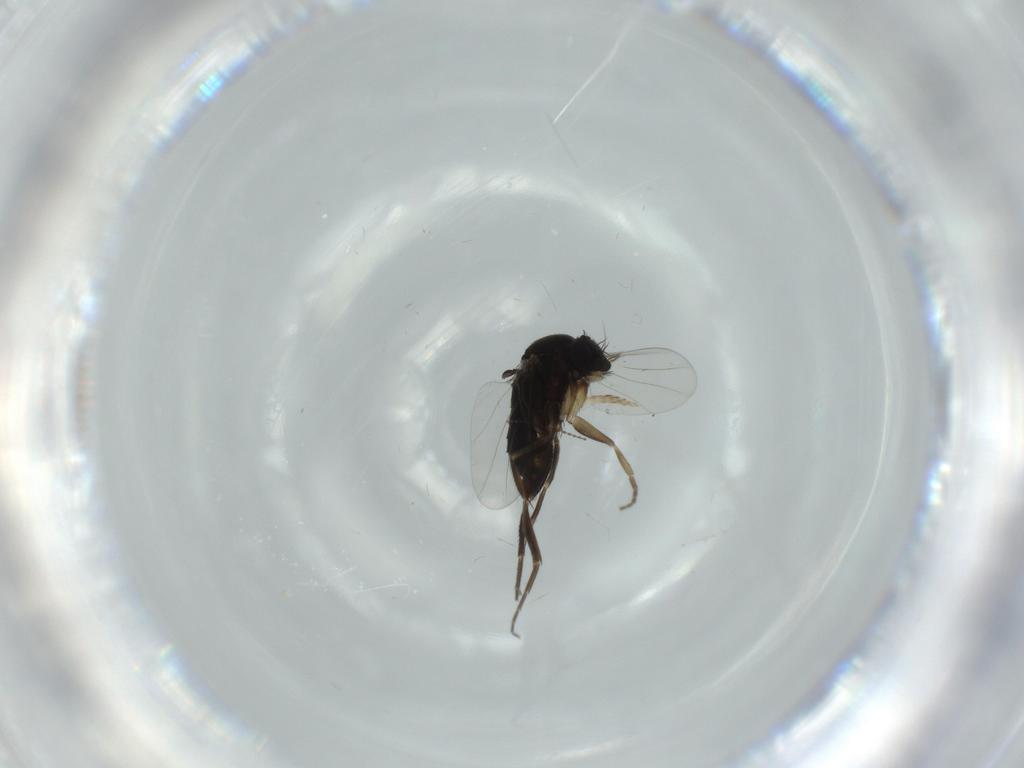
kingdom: Animalia
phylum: Arthropoda
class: Insecta
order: Diptera
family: Phoridae
